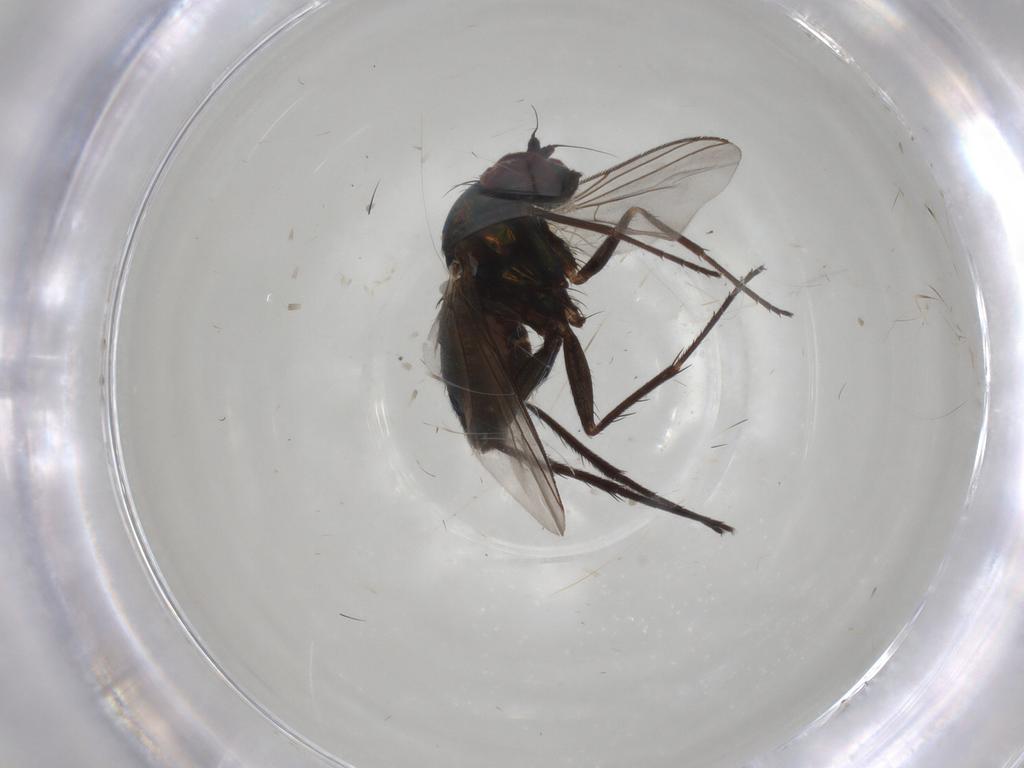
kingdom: Animalia
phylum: Arthropoda
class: Insecta
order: Diptera
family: Dolichopodidae
